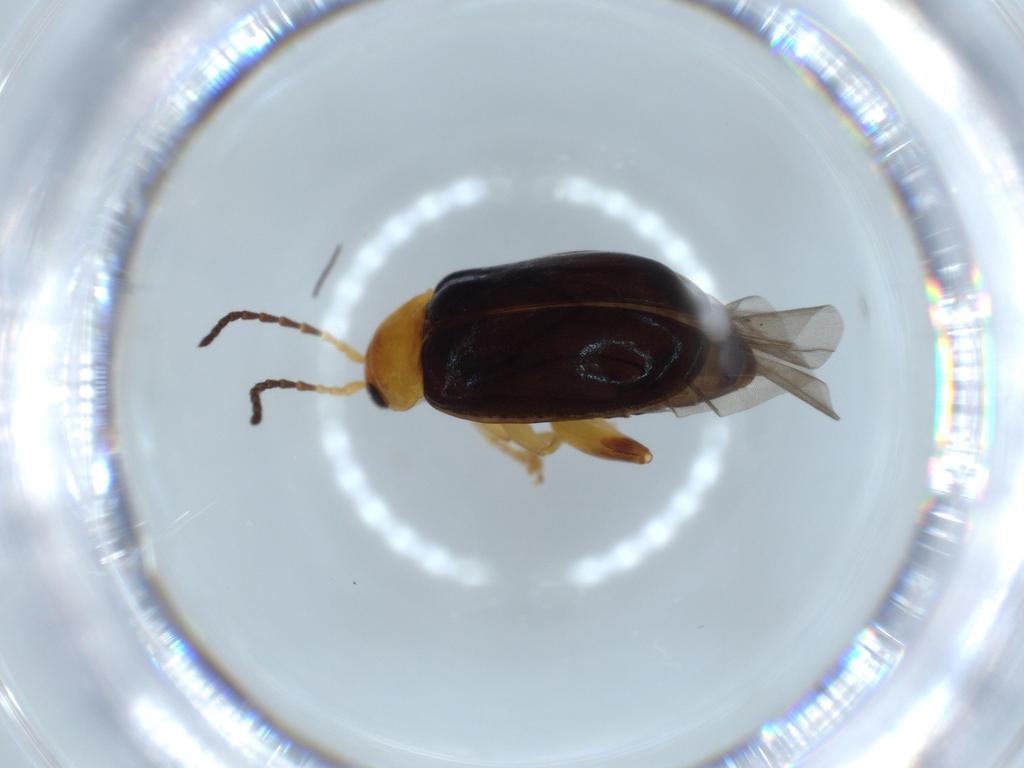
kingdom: Animalia
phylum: Arthropoda
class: Insecta
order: Coleoptera
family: Chrysomelidae
